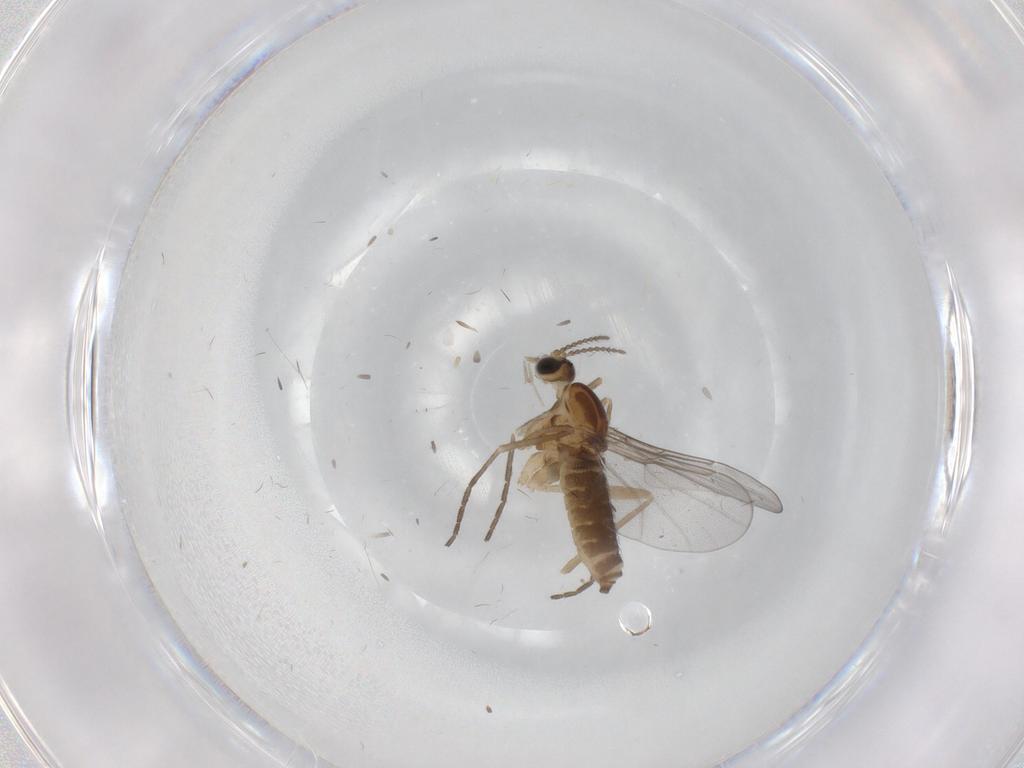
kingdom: Animalia
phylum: Arthropoda
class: Insecta
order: Diptera
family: Cecidomyiidae
